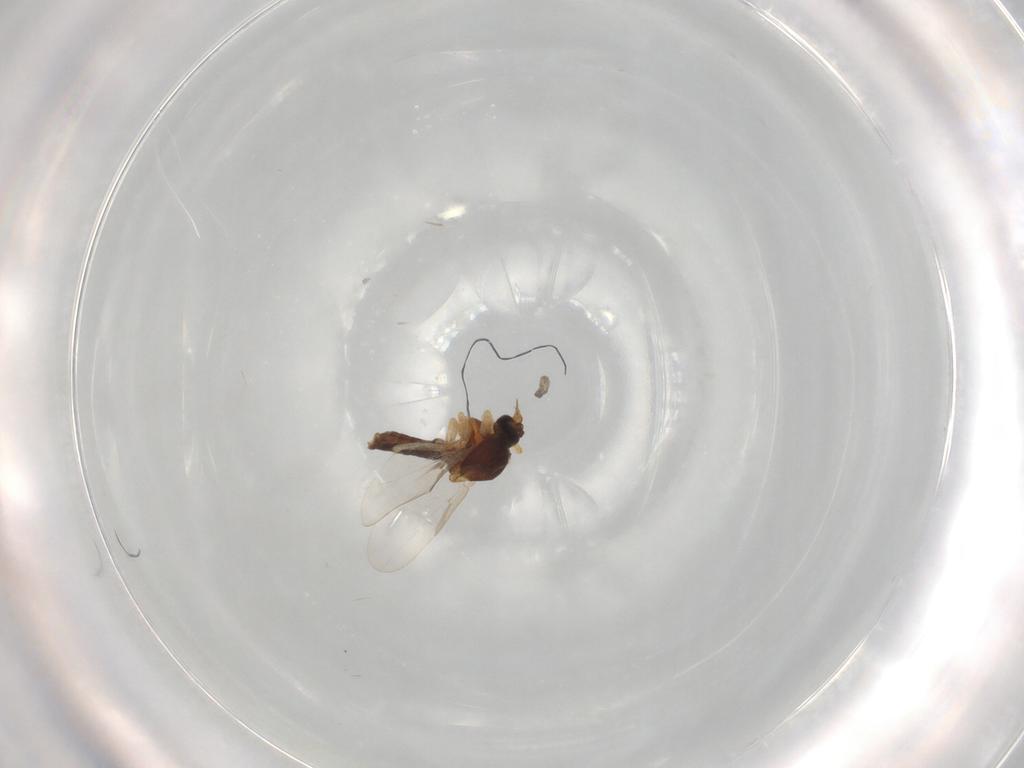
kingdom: Animalia
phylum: Arthropoda
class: Insecta
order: Diptera
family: Ceratopogonidae
